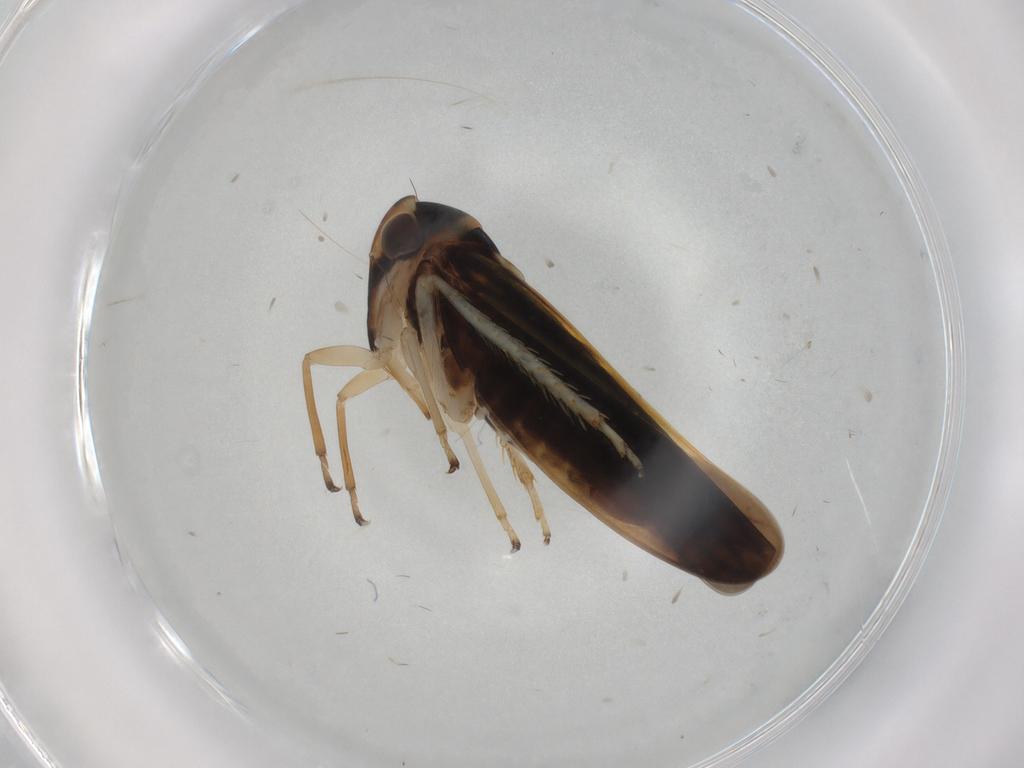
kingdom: Animalia
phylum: Arthropoda
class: Insecta
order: Hemiptera
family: Cicadellidae
